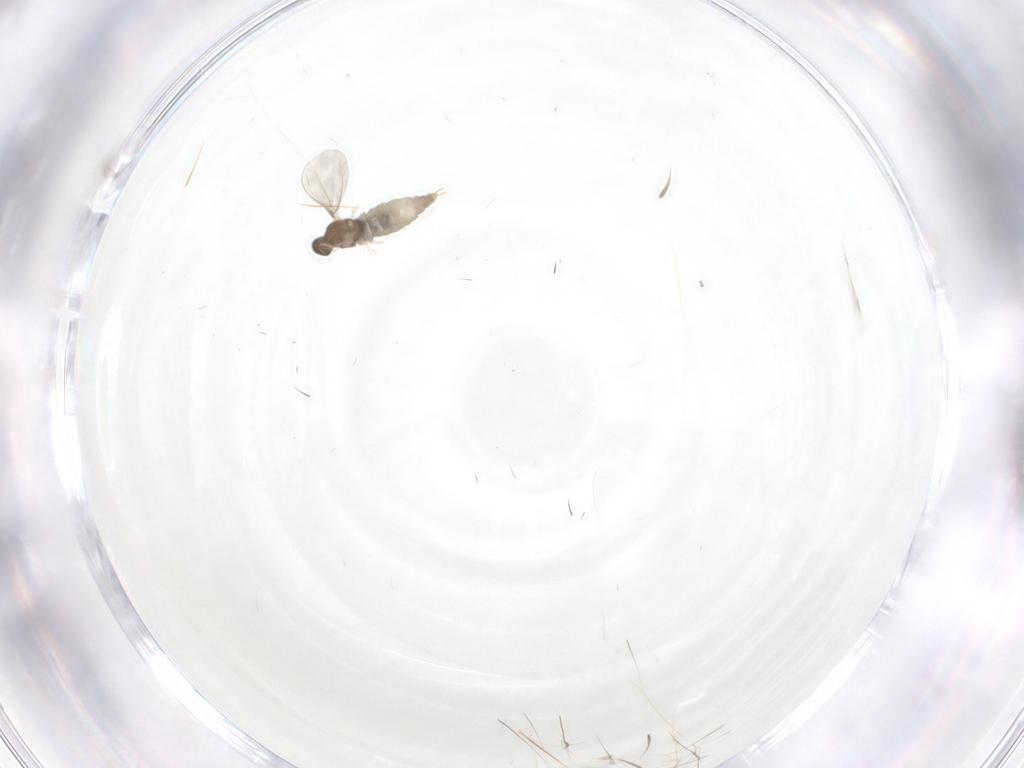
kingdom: Animalia
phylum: Arthropoda
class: Insecta
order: Diptera
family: Cecidomyiidae
